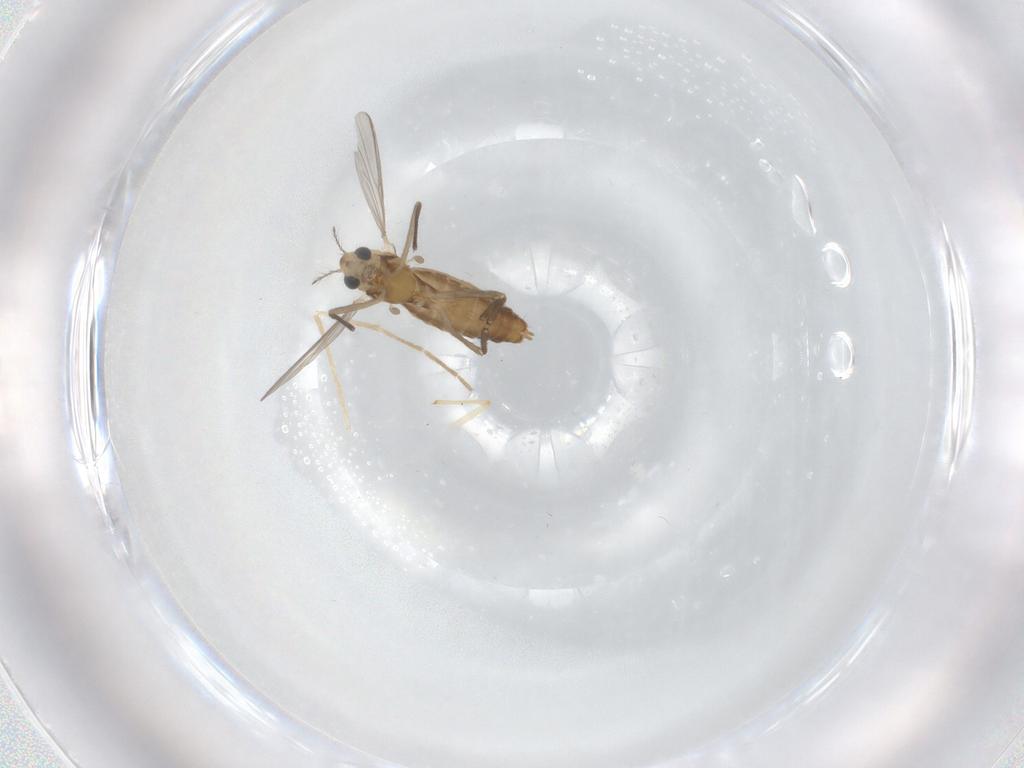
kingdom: Animalia
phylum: Arthropoda
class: Insecta
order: Diptera
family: Chironomidae
